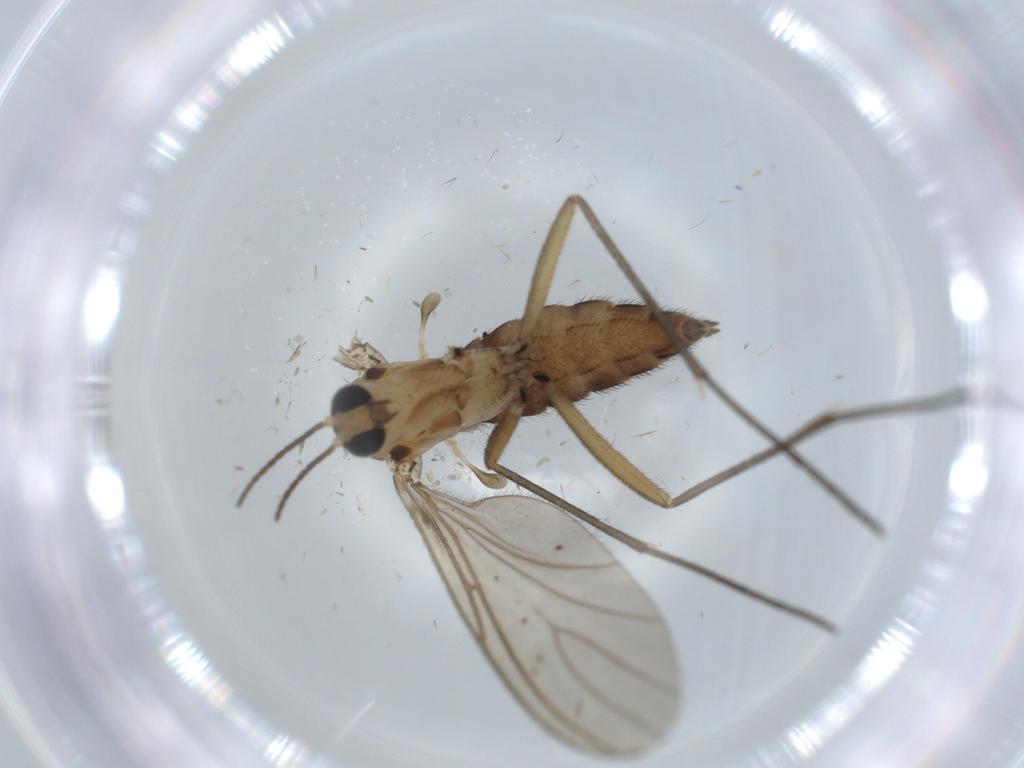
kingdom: Animalia
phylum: Arthropoda
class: Insecta
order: Diptera
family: Sciaridae
